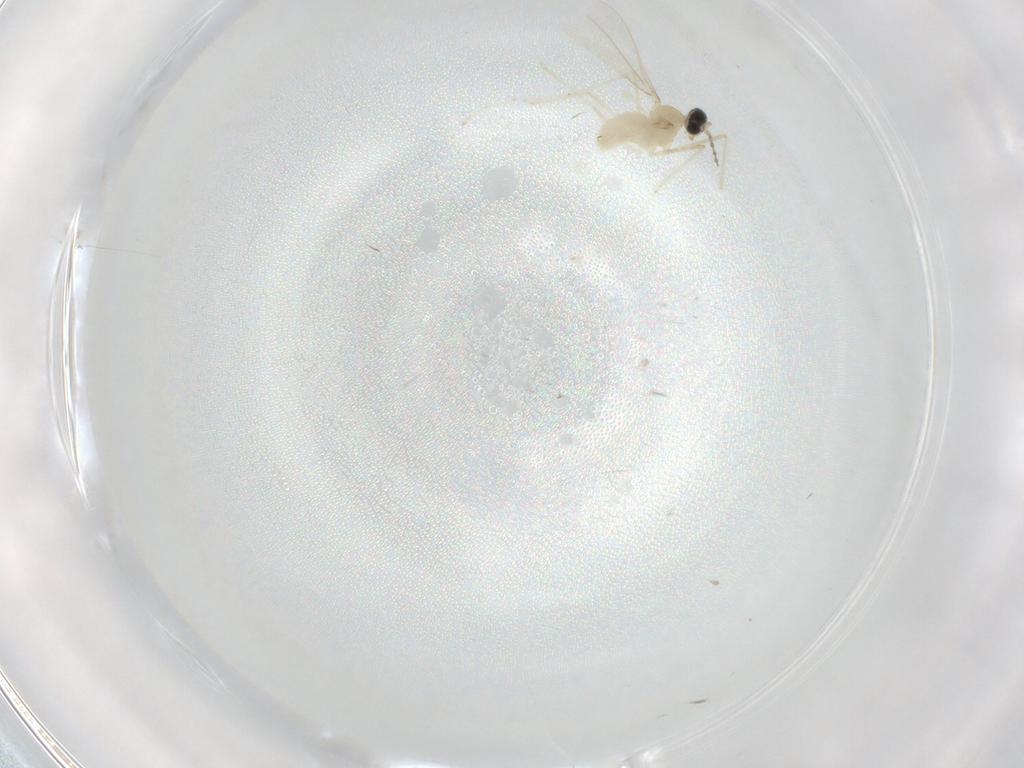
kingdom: Animalia
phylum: Arthropoda
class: Insecta
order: Diptera
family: Cecidomyiidae
